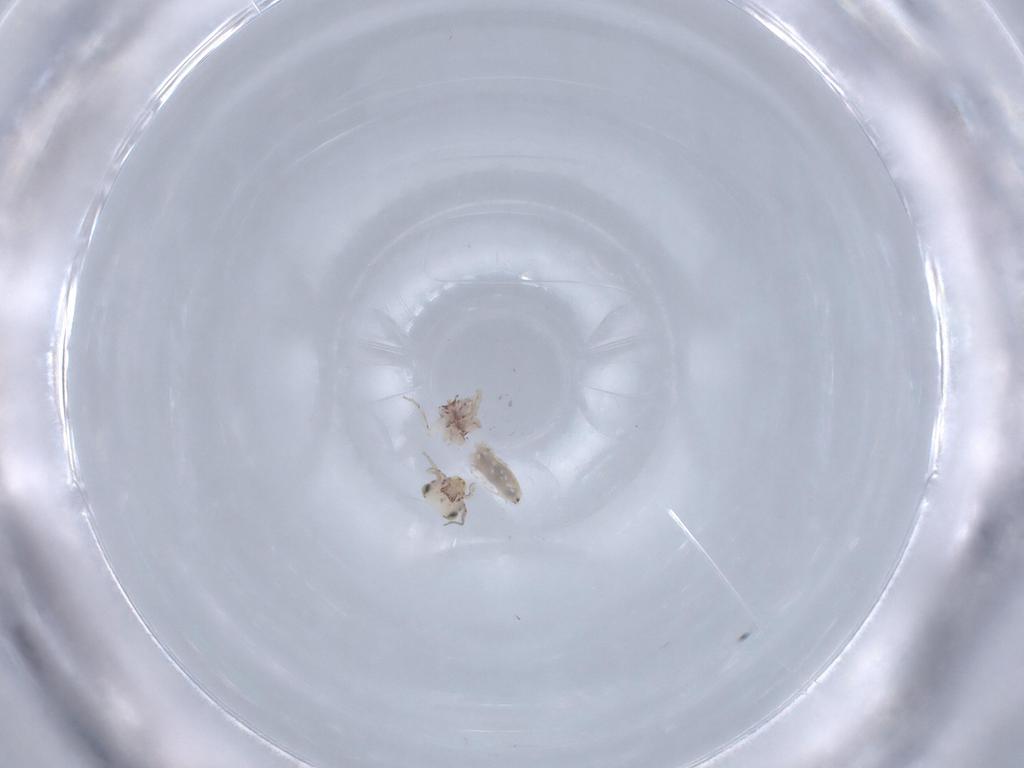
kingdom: Animalia
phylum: Arthropoda
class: Insecta
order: Psocodea
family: Lepidopsocidae
